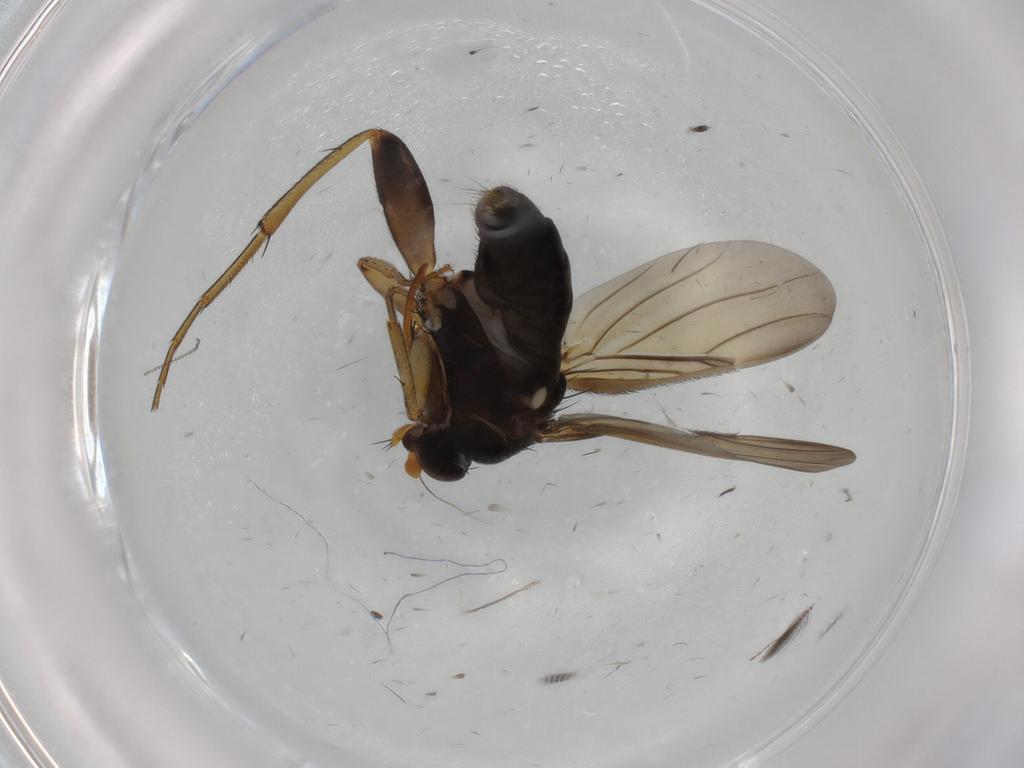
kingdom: Animalia
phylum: Arthropoda
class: Insecta
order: Diptera
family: Phoridae
